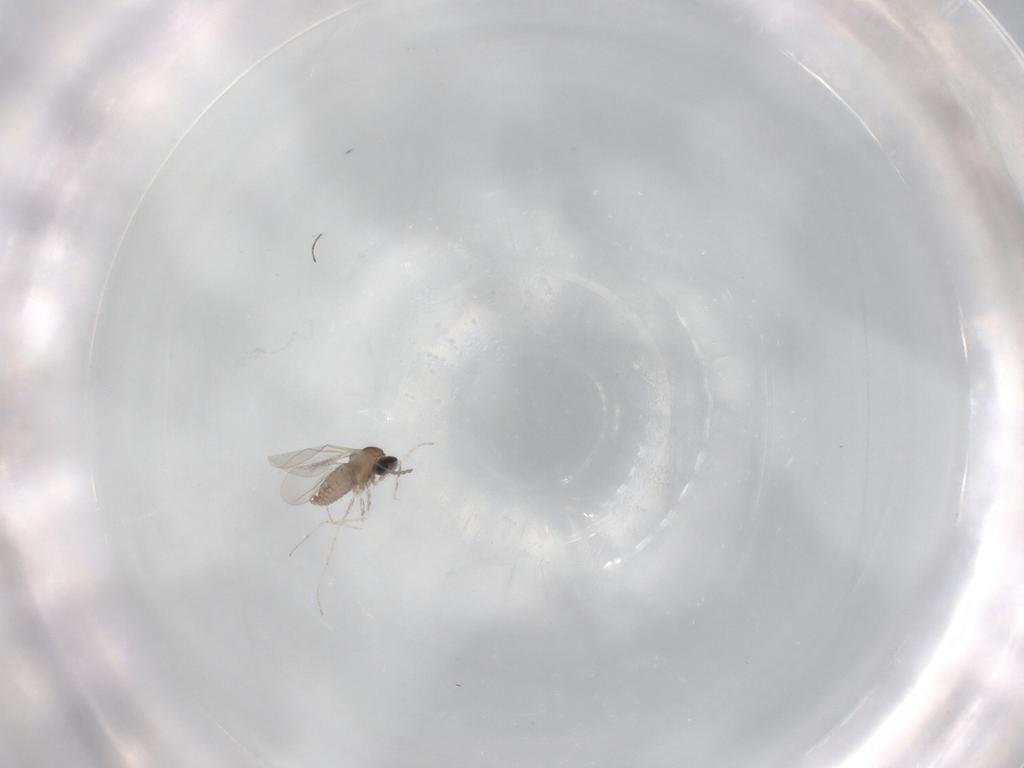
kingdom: Animalia
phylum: Arthropoda
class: Insecta
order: Diptera
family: Cecidomyiidae
